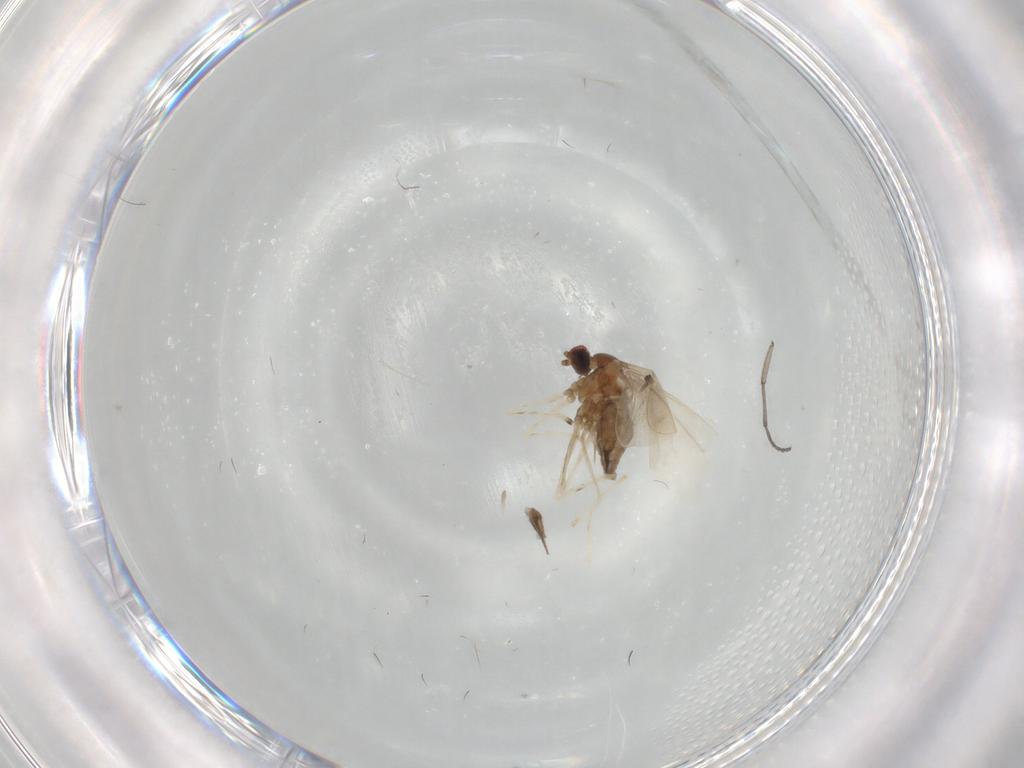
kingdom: Animalia
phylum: Arthropoda
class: Insecta
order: Diptera
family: Cecidomyiidae
